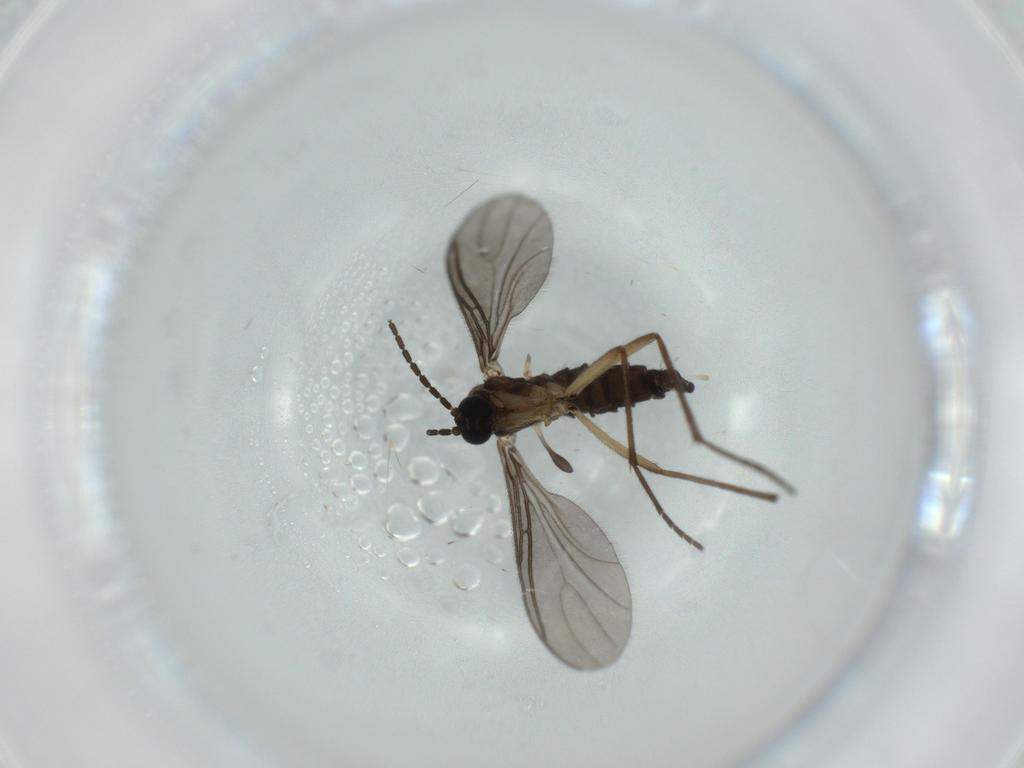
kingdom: Animalia
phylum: Arthropoda
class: Insecta
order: Diptera
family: Sciaridae
